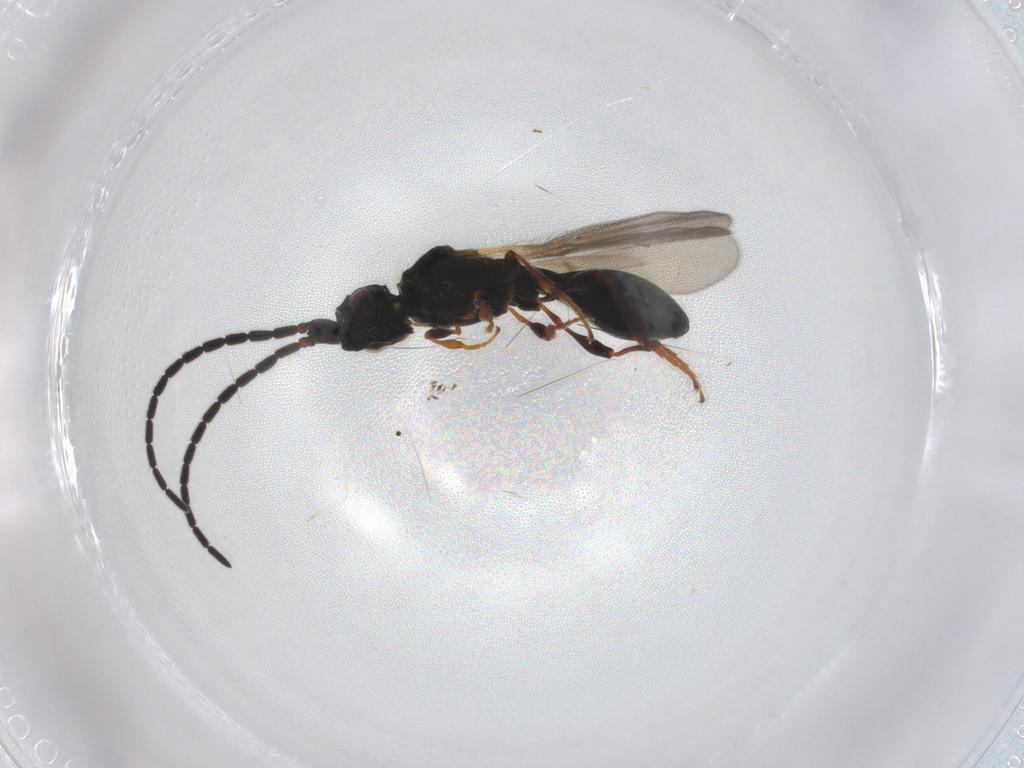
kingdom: Animalia
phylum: Arthropoda
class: Insecta
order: Hymenoptera
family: Diapriidae
